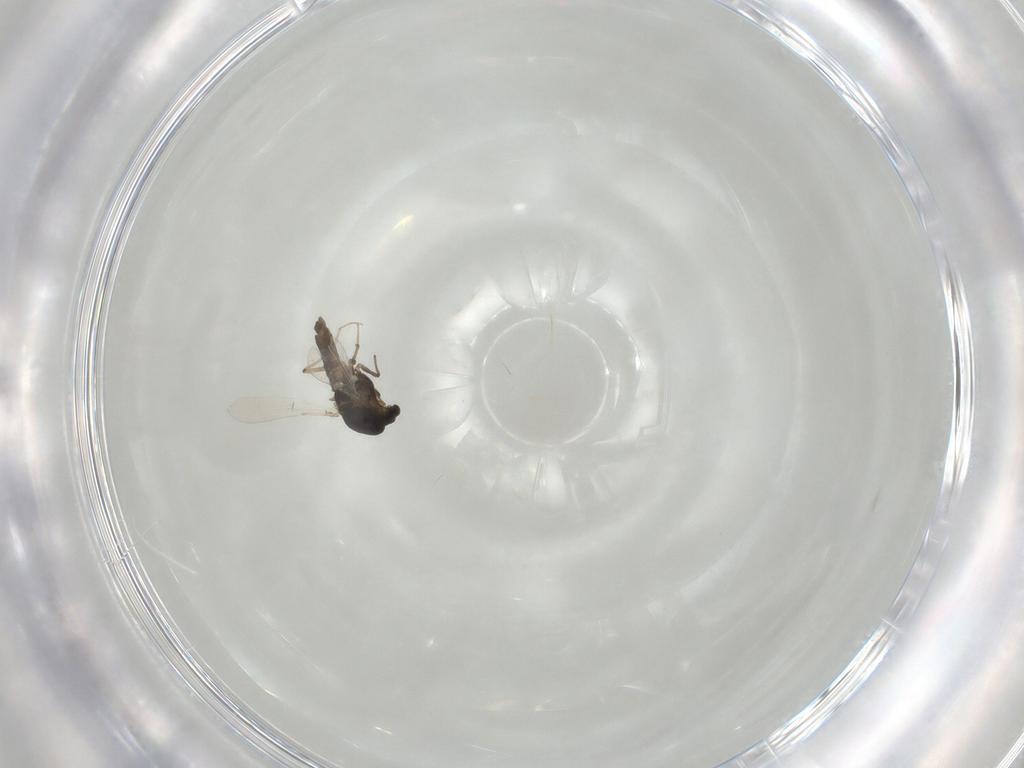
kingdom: Animalia
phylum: Arthropoda
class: Insecta
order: Diptera
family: Chironomidae
